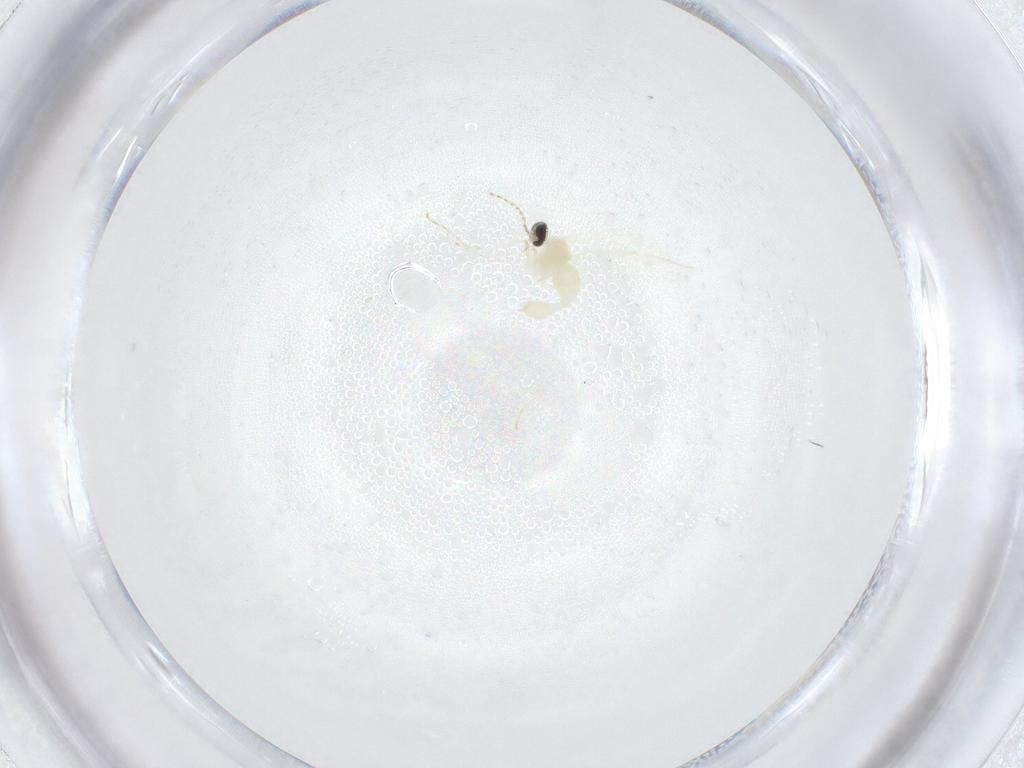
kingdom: Animalia
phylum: Arthropoda
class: Insecta
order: Diptera
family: Cecidomyiidae
